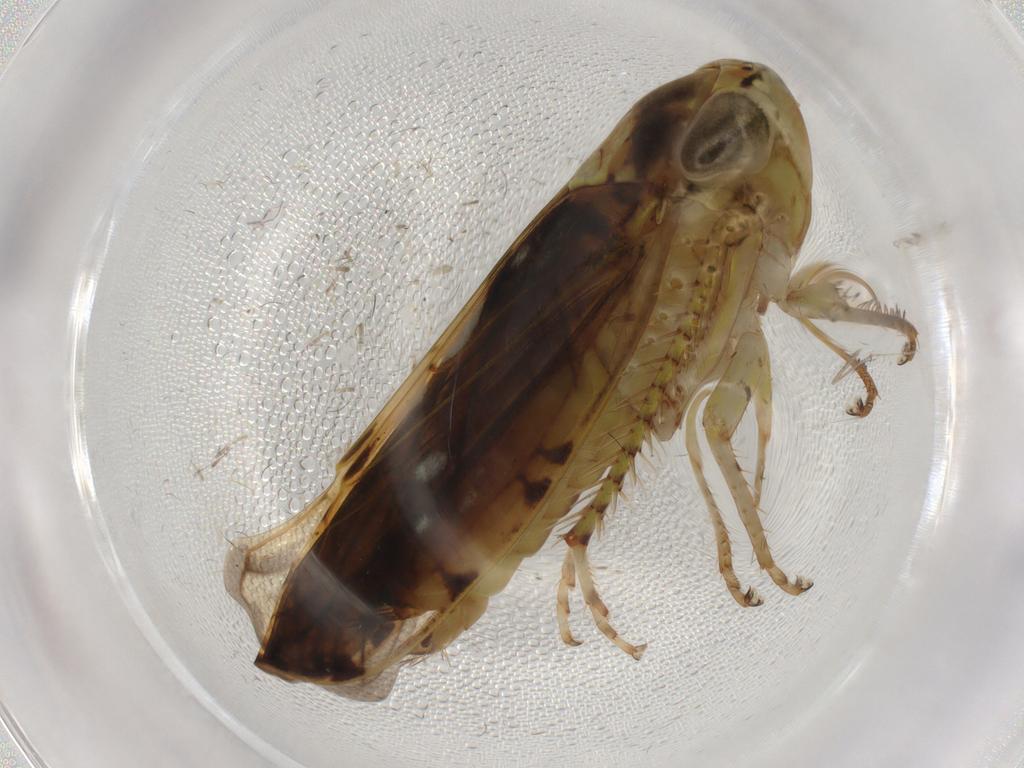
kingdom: Animalia
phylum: Arthropoda
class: Insecta
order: Hemiptera
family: Cicadellidae
